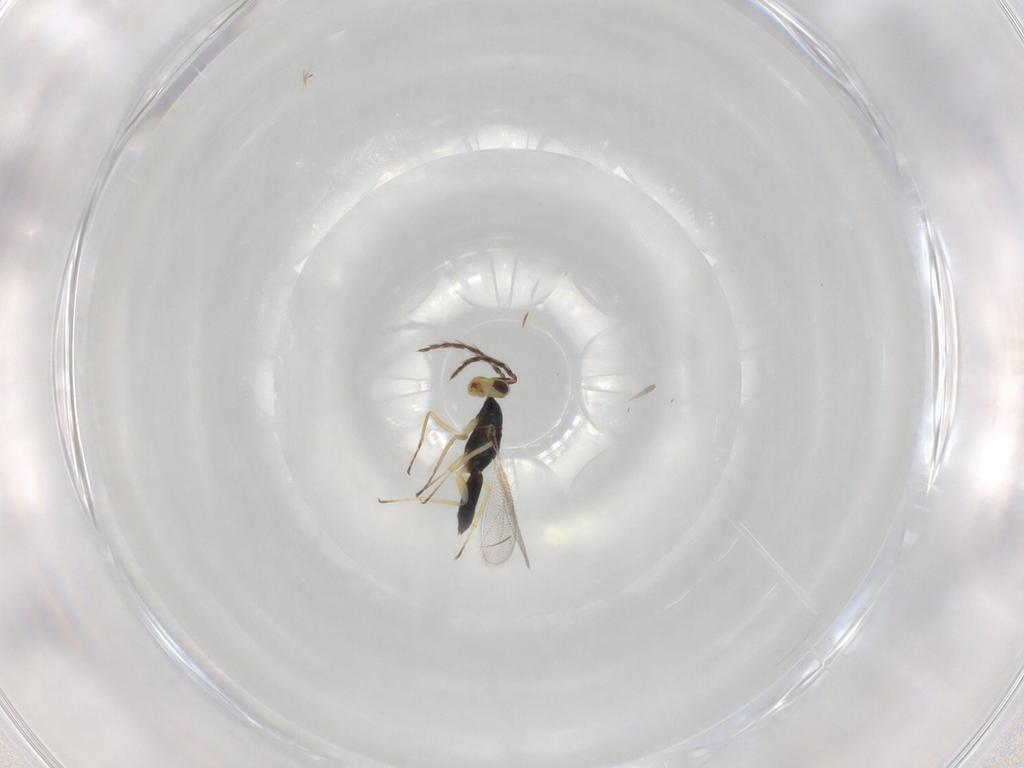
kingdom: Animalia
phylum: Arthropoda
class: Insecta
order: Hymenoptera
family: Eulophidae
